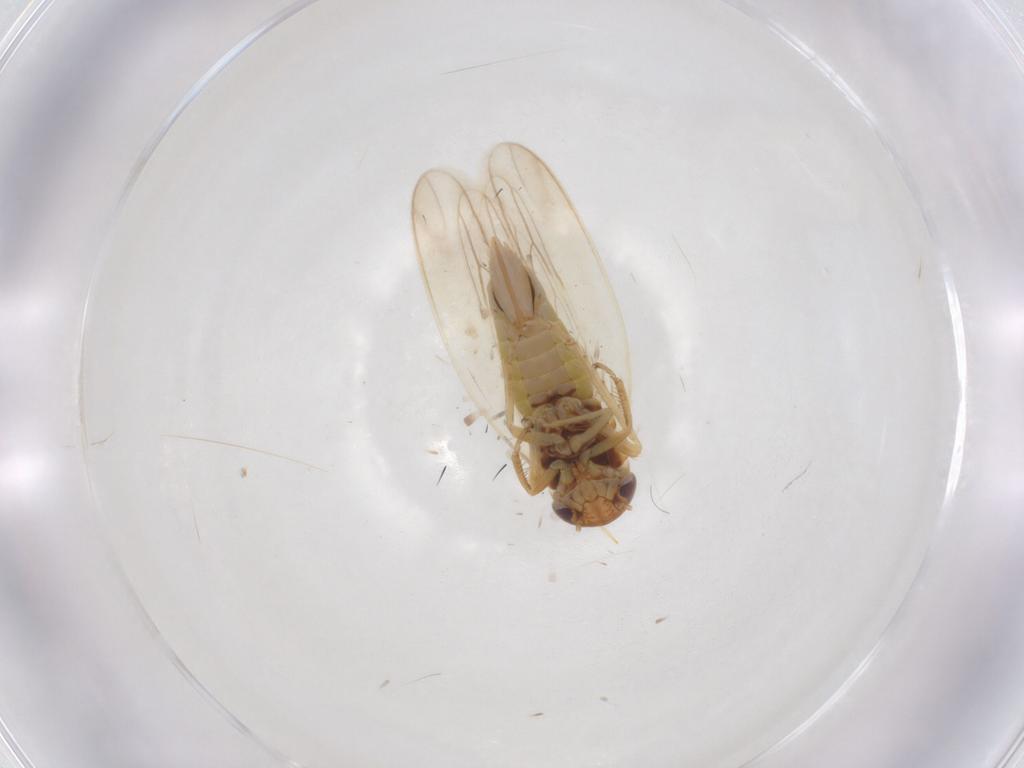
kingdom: Animalia
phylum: Arthropoda
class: Insecta
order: Hemiptera
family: Cicadellidae
